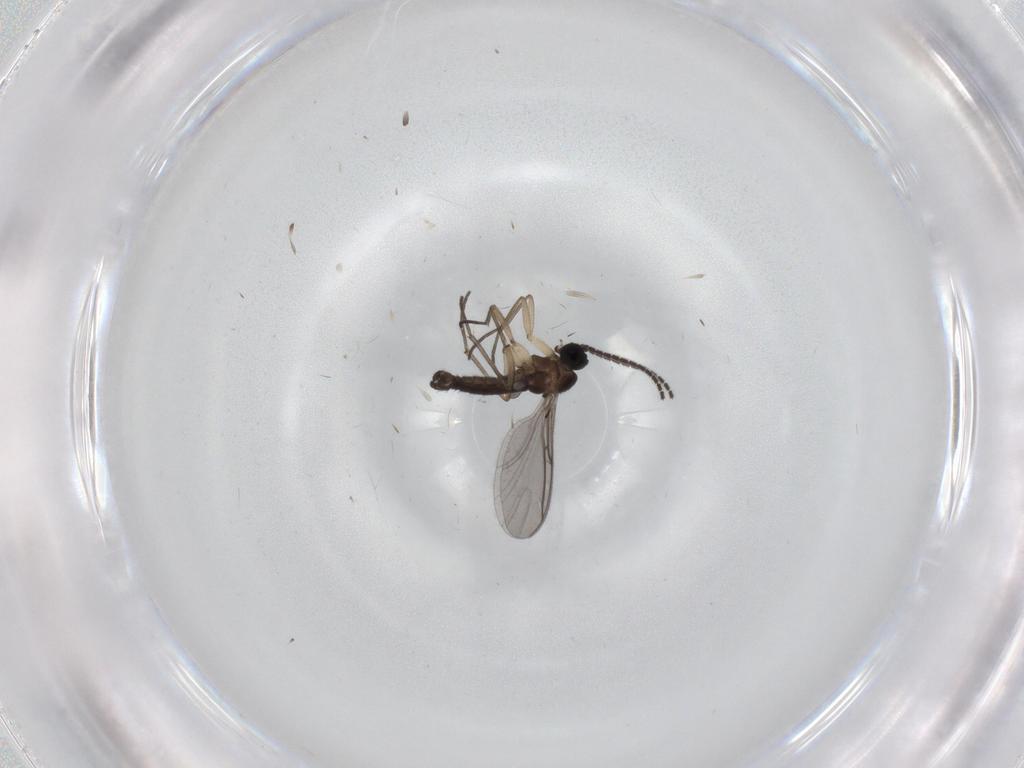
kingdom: Animalia
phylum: Arthropoda
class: Insecta
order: Diptera
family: Sciaridae
